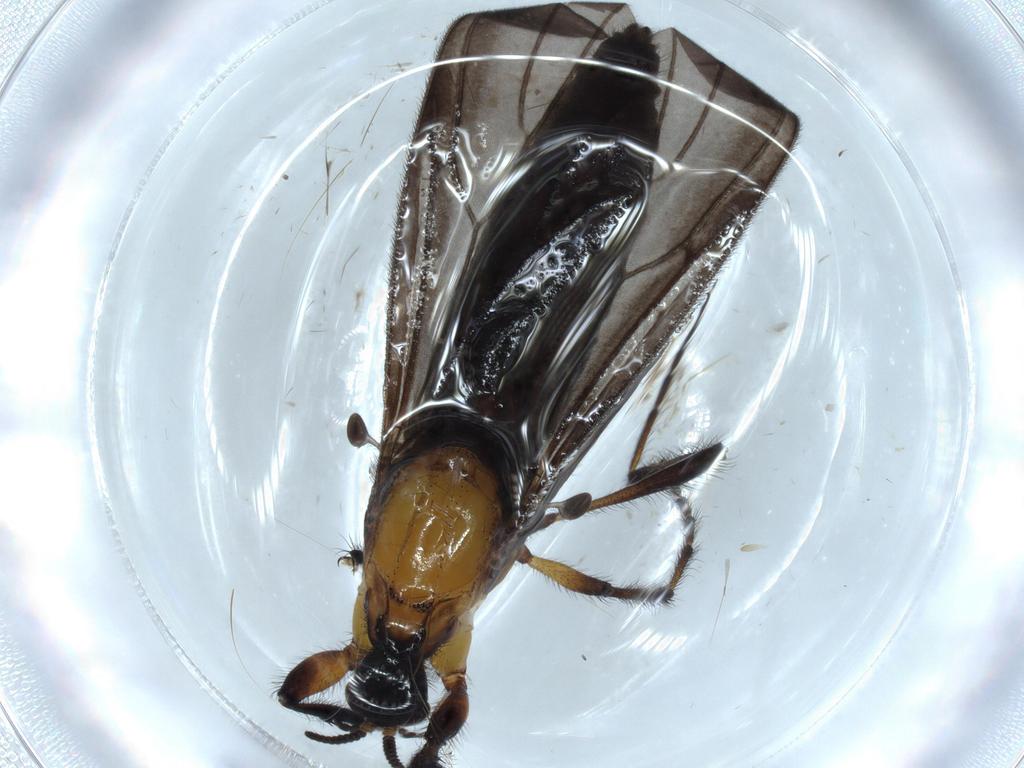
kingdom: Animalia
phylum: Arthropoda
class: Insecta
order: Diptera
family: Bibionidae
